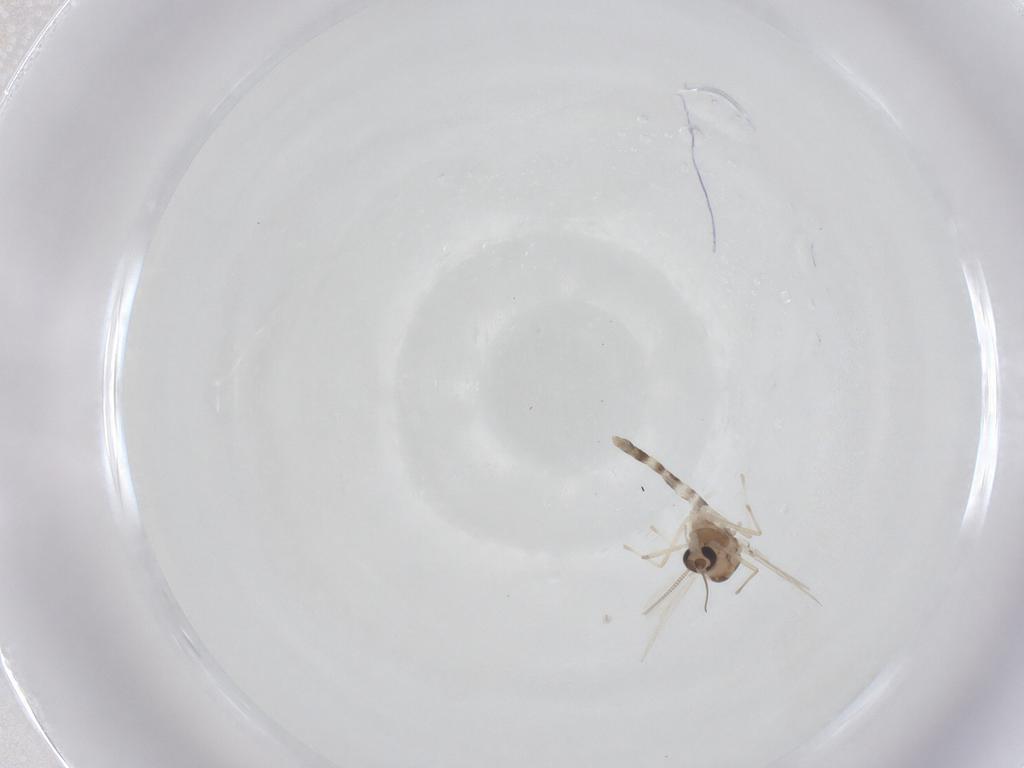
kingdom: Animalia
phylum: Arthropoda
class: Insecta
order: Diptera
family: Chironomidae
